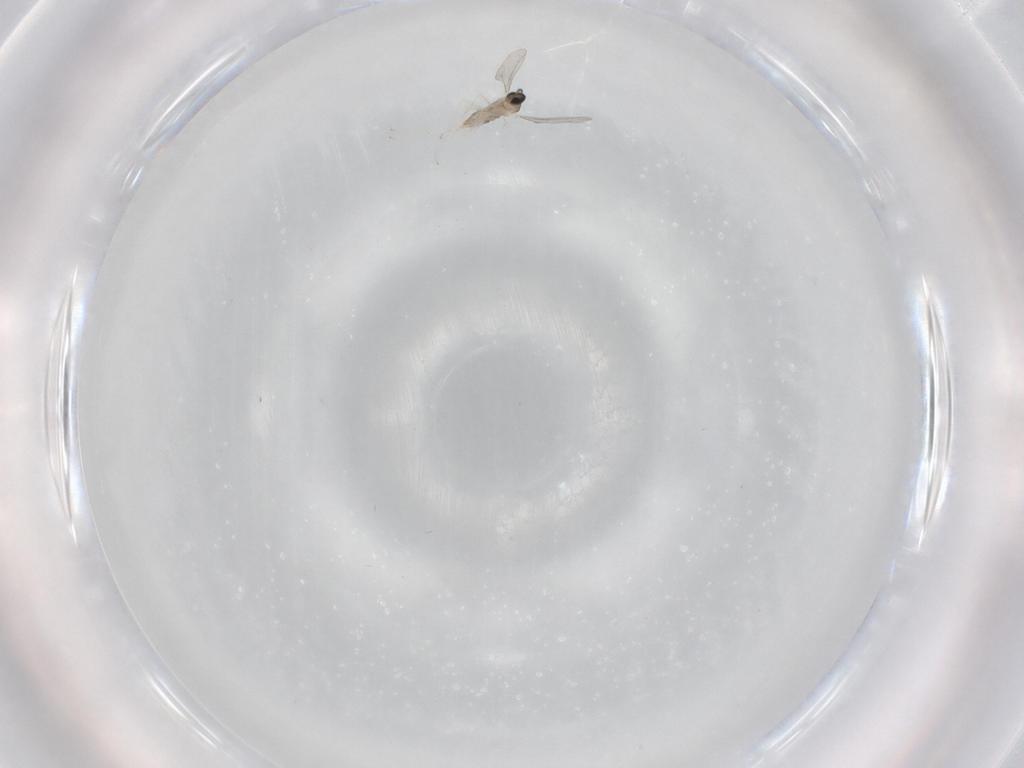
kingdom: Animalia
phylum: Arthropoda
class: Insecta
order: Diptera
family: Cecidomyiidae
